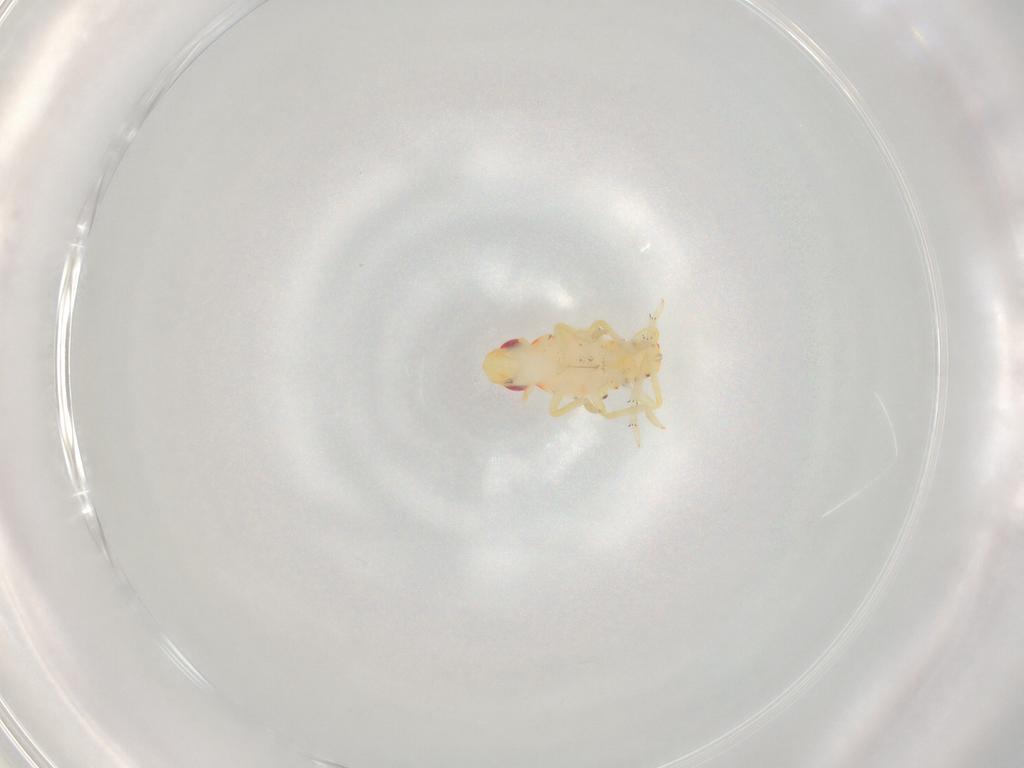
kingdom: Animalia
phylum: Arthropoda
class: Insecta
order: Hemiptera
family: Tropiduchidae
